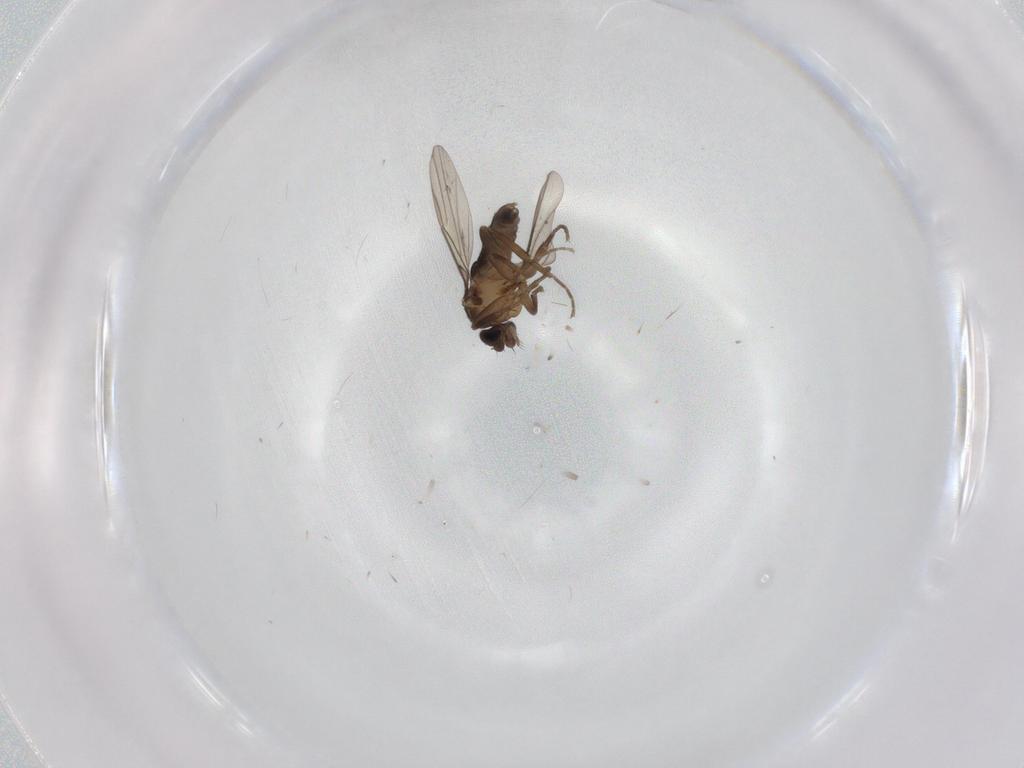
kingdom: Animalia
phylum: Arthropoda
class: Insecta
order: Diptera
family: Phoridae
